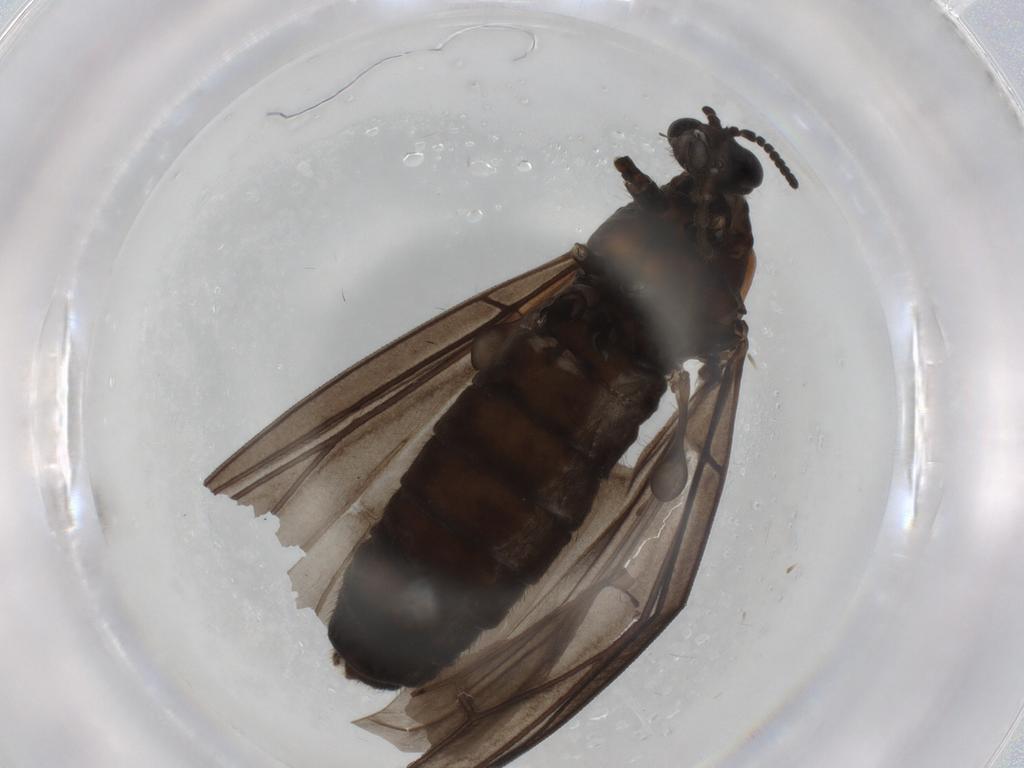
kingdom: Animalia
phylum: Arthropoda
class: Insecta
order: Diptera
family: Bibionidae
